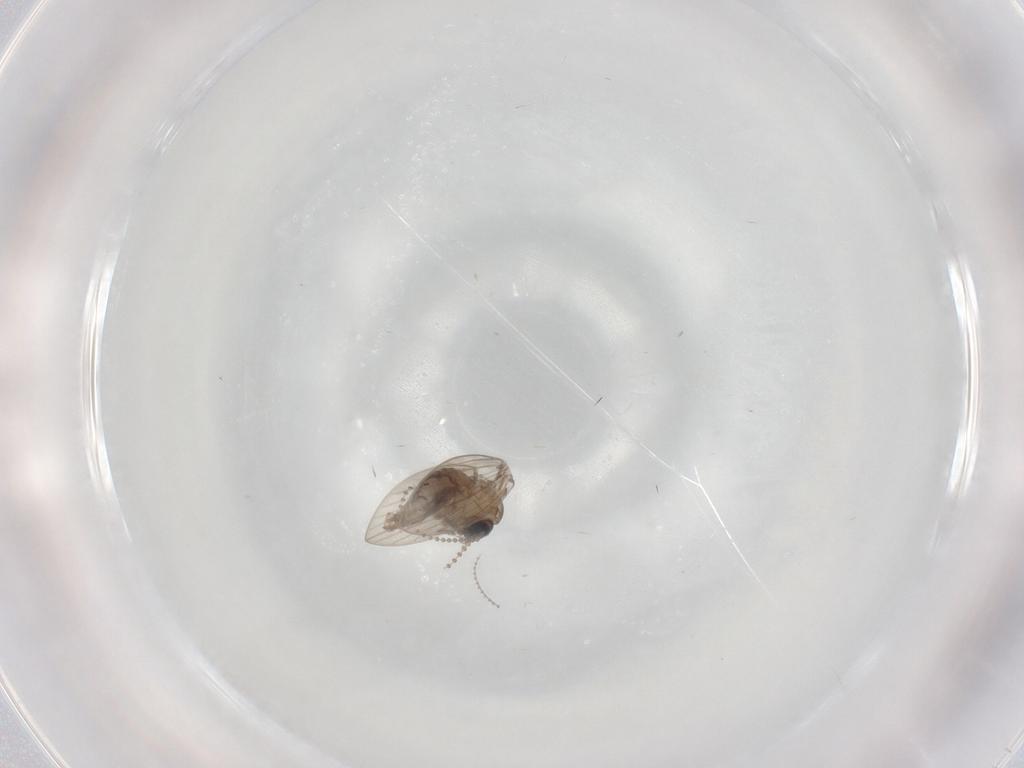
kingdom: Animalia
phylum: Arthropoda
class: Insecta
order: Diptera
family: Psychodidae
